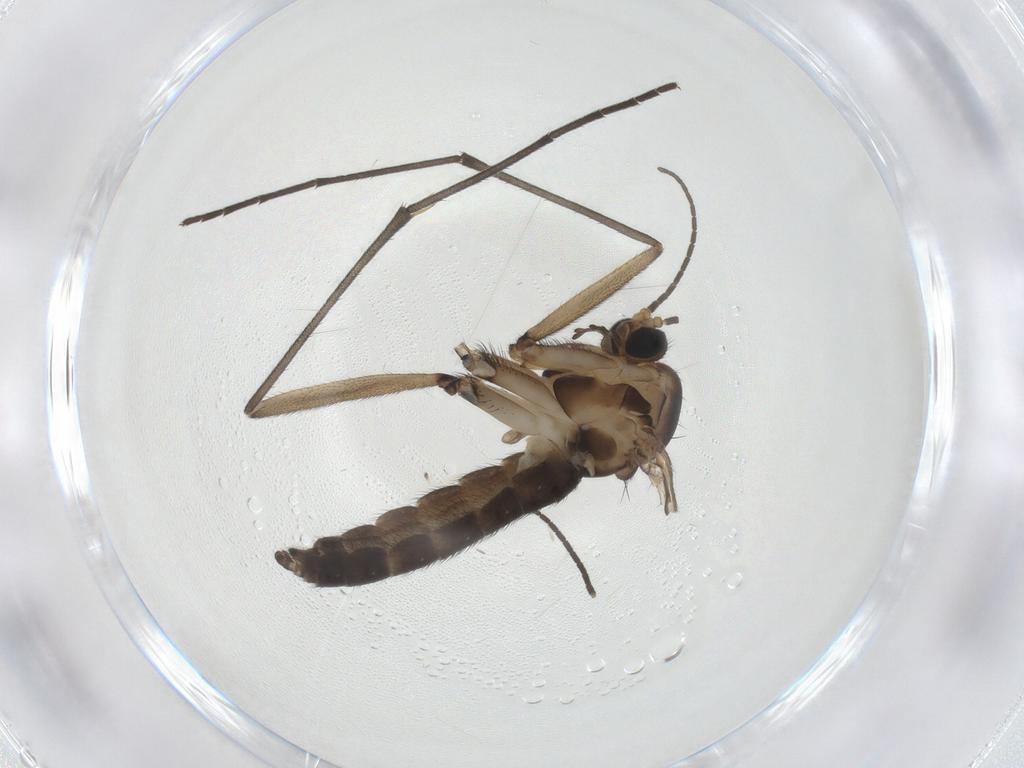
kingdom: Animalia
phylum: Arthropoda
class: Insecta
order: Diptera
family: Sciaridae
